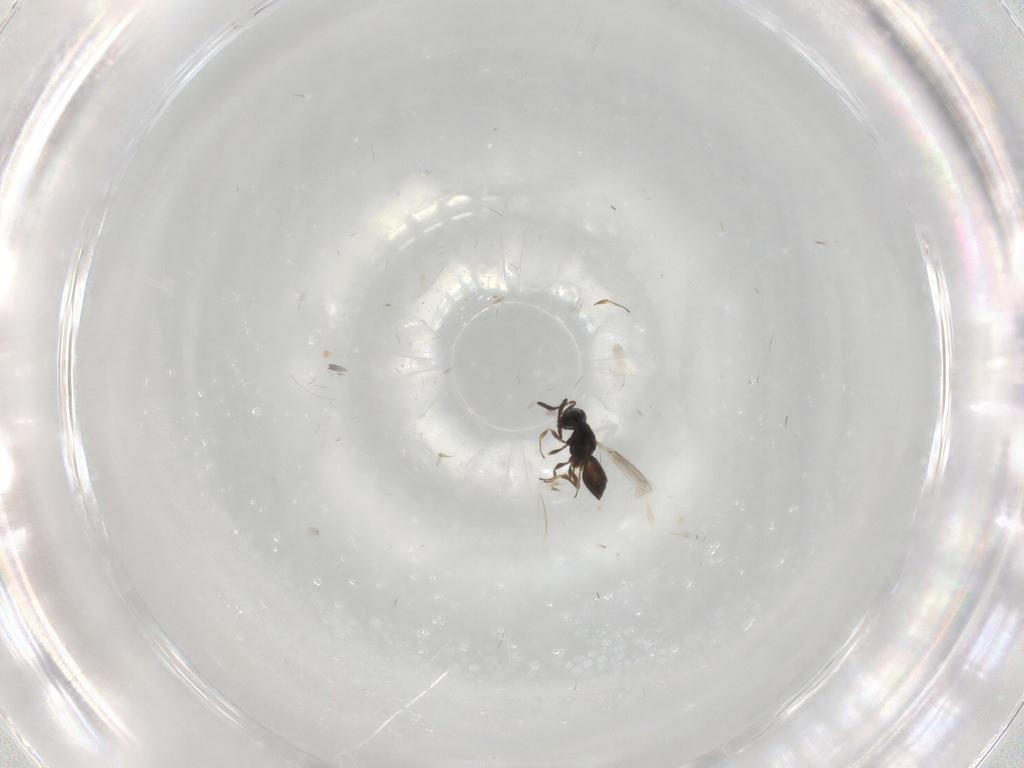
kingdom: Animalia
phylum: Arthropoda
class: Insecta
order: Hymenoptera
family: Scelionidae
